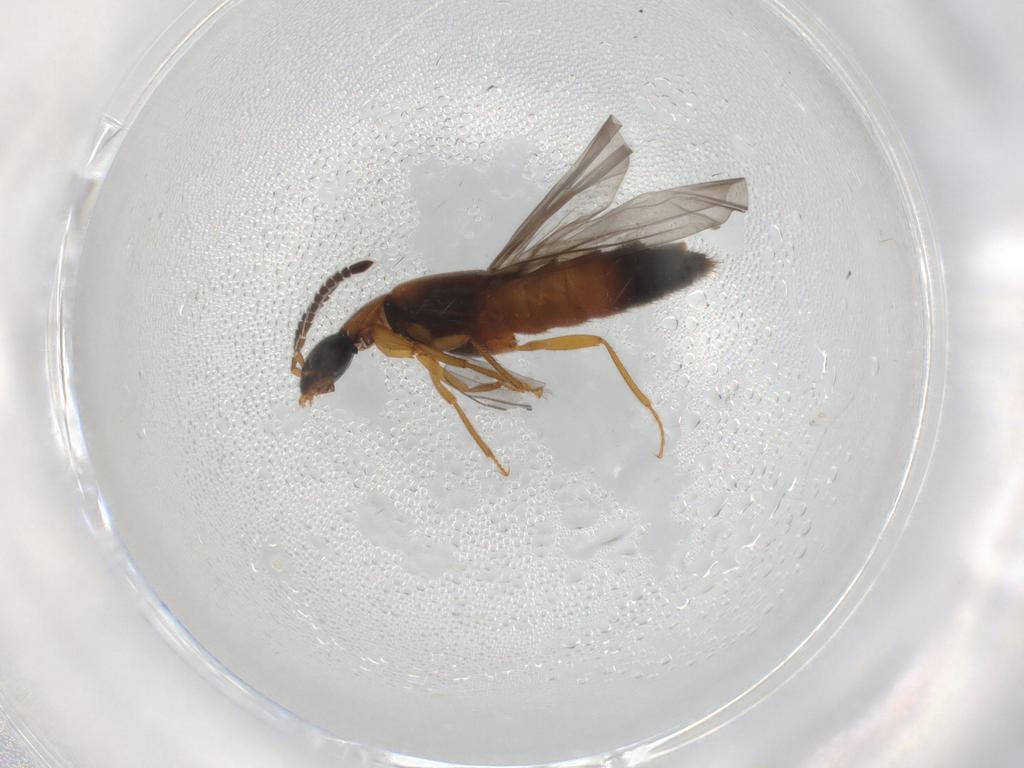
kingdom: Animalia
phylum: Arthropoda
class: Insecta
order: Coleoptera
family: Staphylinidae
